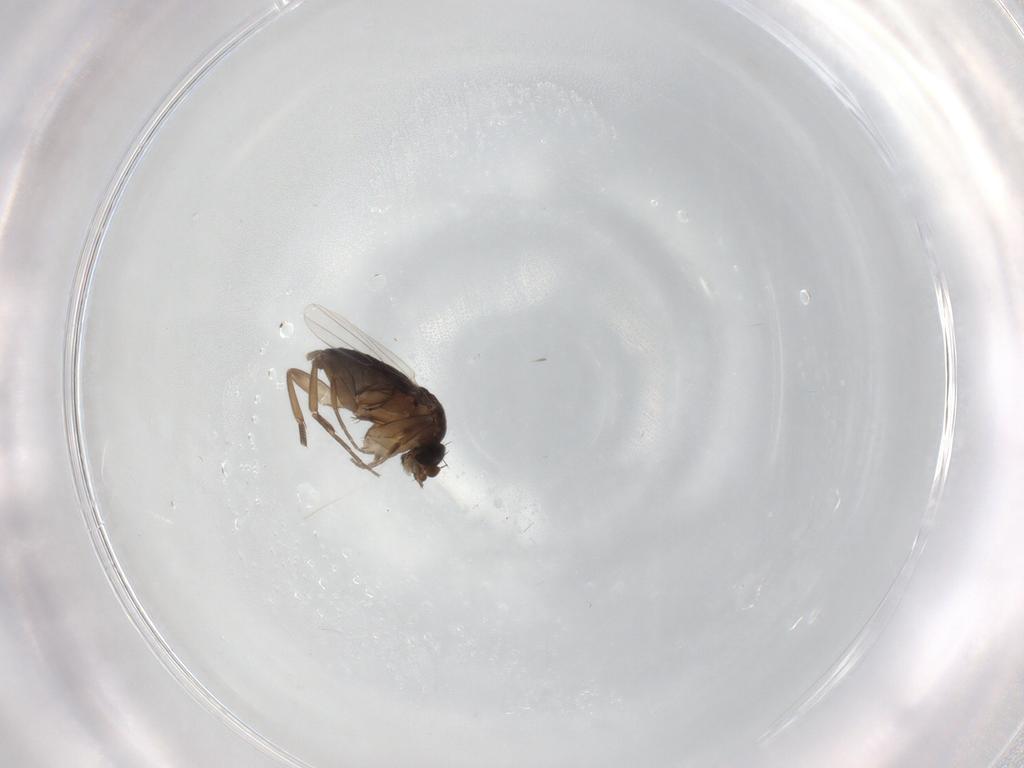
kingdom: Animalia
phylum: Arthropoda
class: Insecta
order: Diptera
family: Phoridae
